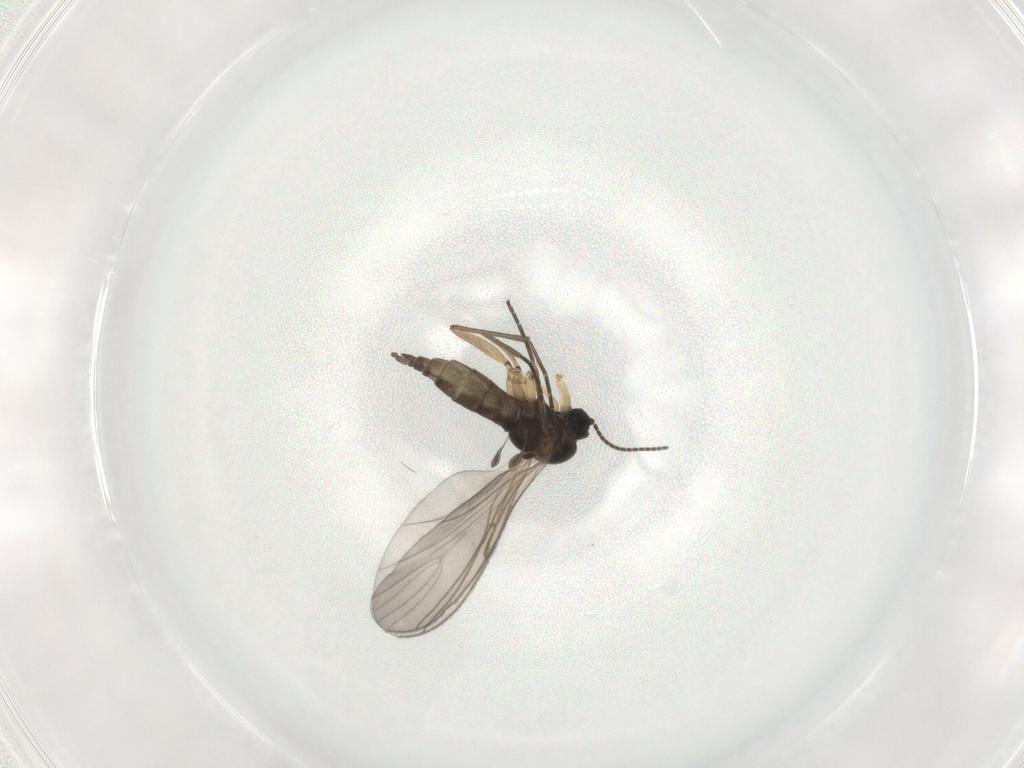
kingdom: Animalia
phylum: Arthropoda
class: Insecta
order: Diptera
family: Sciaridae
